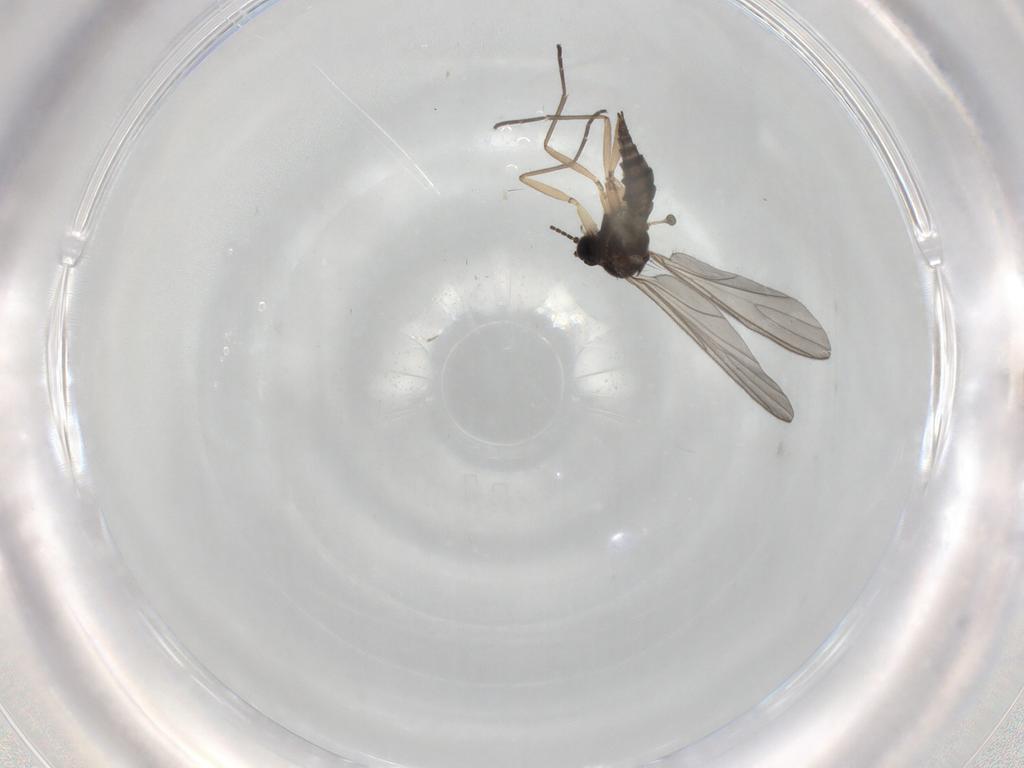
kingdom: Animalia
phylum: Arthropoda
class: Insecta
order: Diptera
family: Sciaridae
